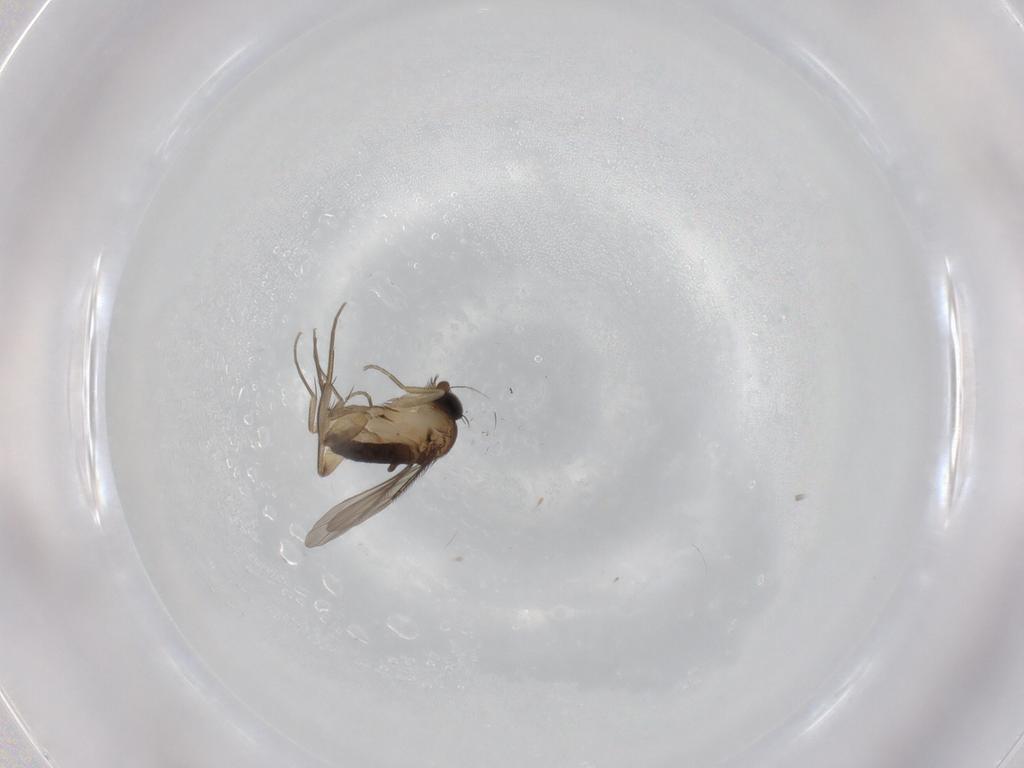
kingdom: Animalia
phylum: Arthropoda
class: Insecta
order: Diptera
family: Phoridae
